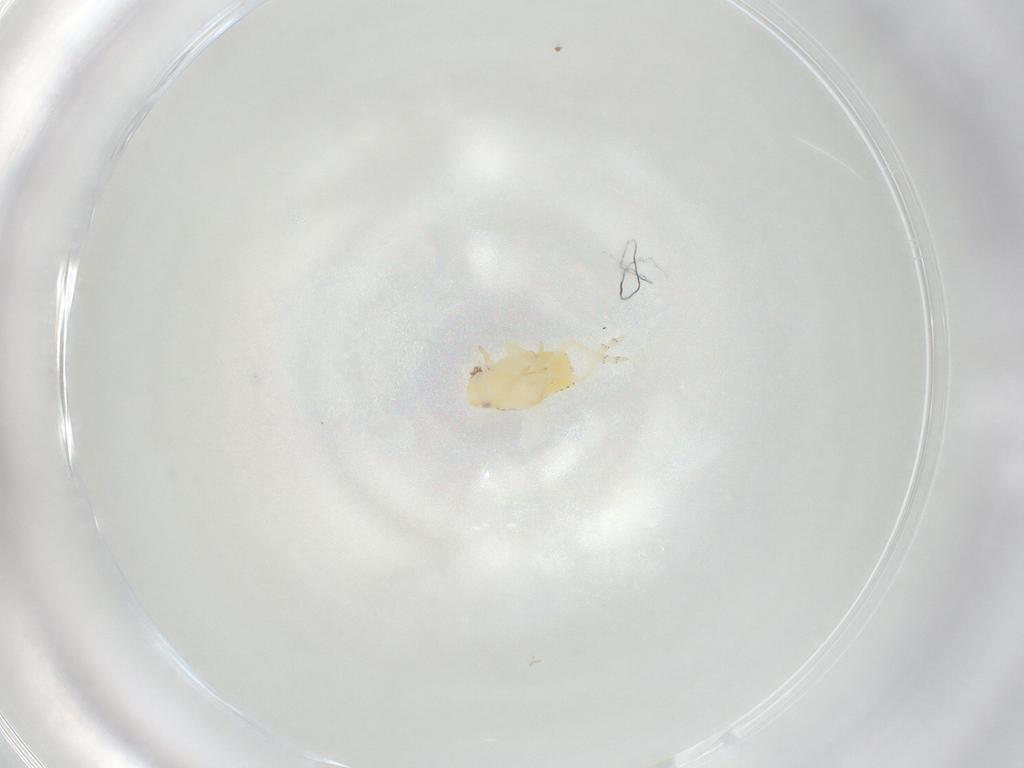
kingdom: Animalia
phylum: Arthropoda
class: Insecta
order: Hemiptera
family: Flatidae
